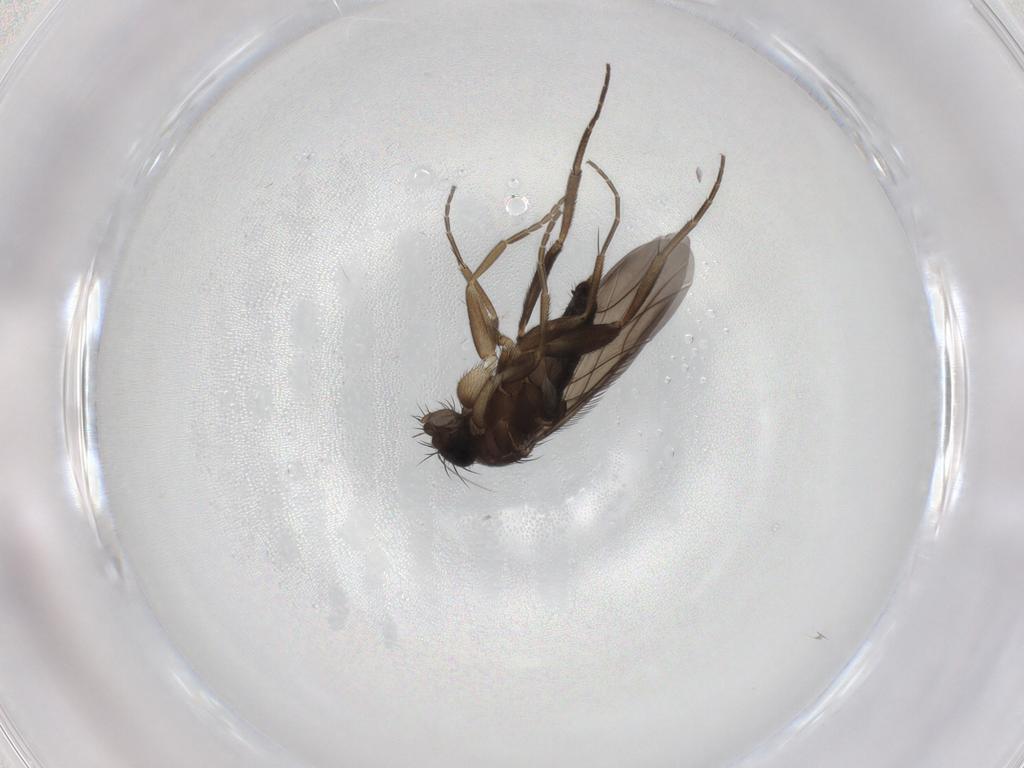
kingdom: Animalia
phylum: Arthropoda
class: Insecta
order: Diptera
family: Phoridae
